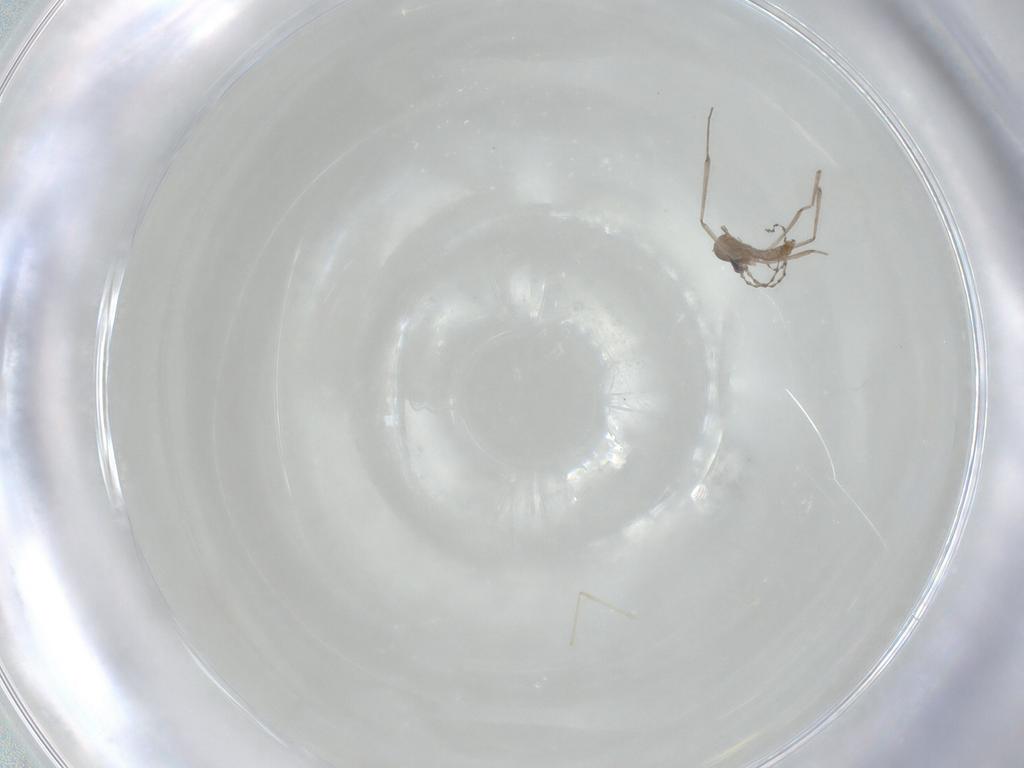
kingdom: Animalia
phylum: Arthropoda
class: Insecta
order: Diptera
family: Cecidomyiidae
